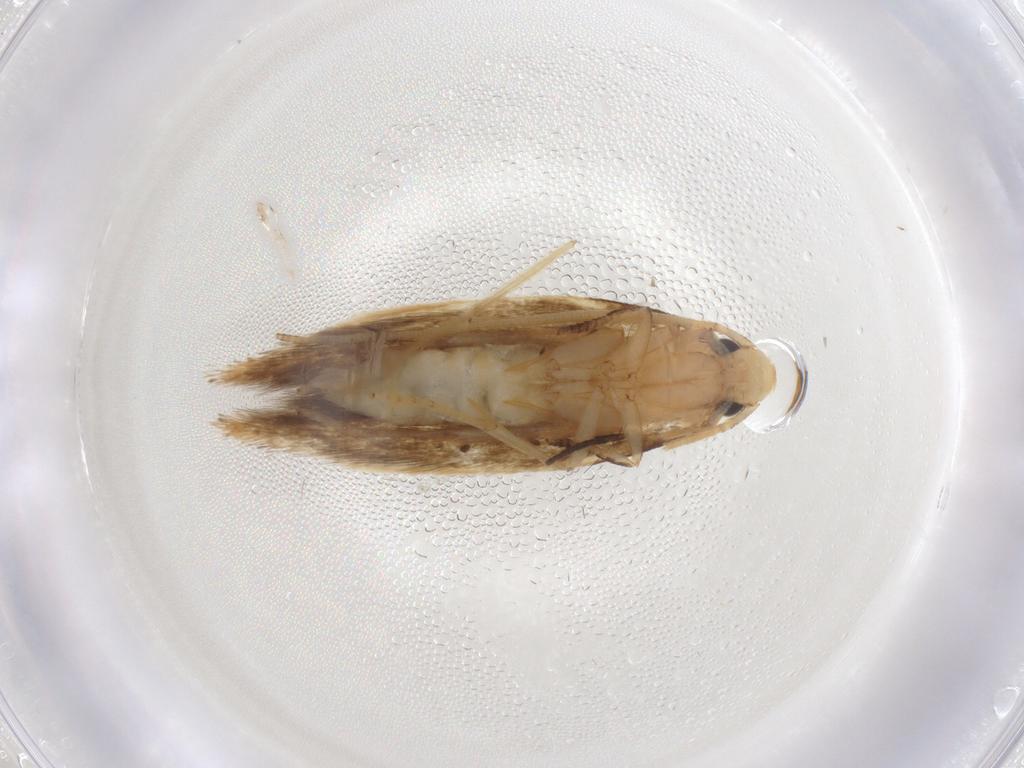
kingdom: Animalia
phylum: Arthropoda
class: Insecta
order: Lepidoptera
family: Tineidae
